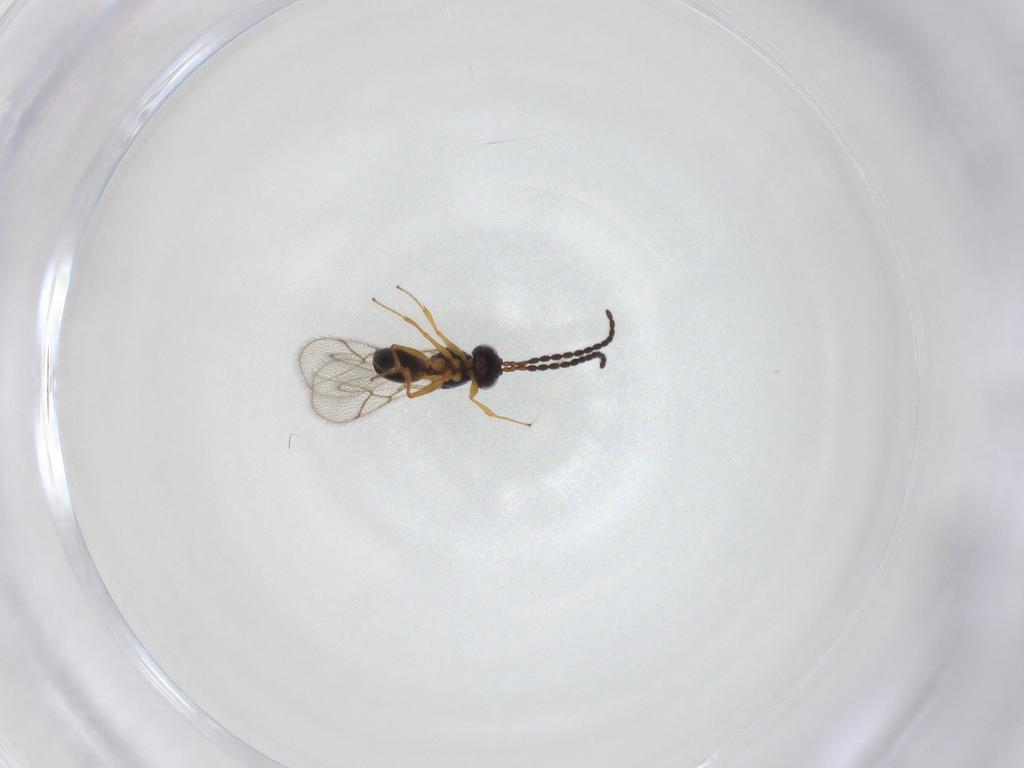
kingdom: Animalia
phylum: Arthropoda
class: Insecta
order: Hymenoptera
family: Figitidae
